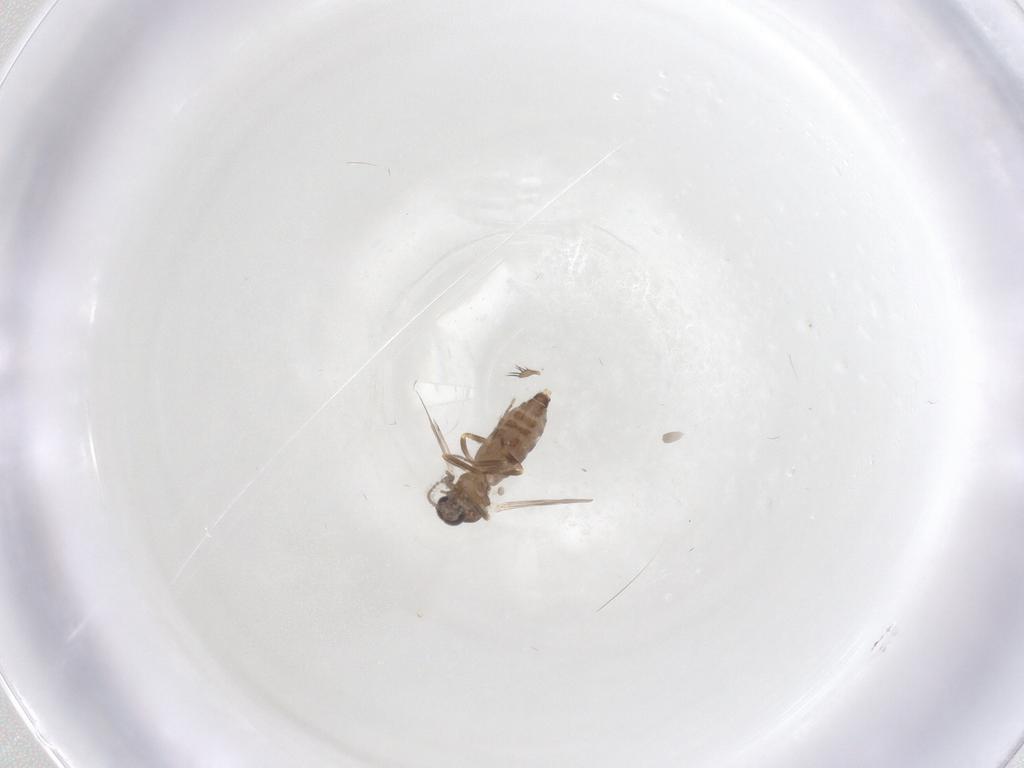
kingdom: Animalia
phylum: Arthropoda
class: Insecta
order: Diptera
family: Ceratopogonidae
